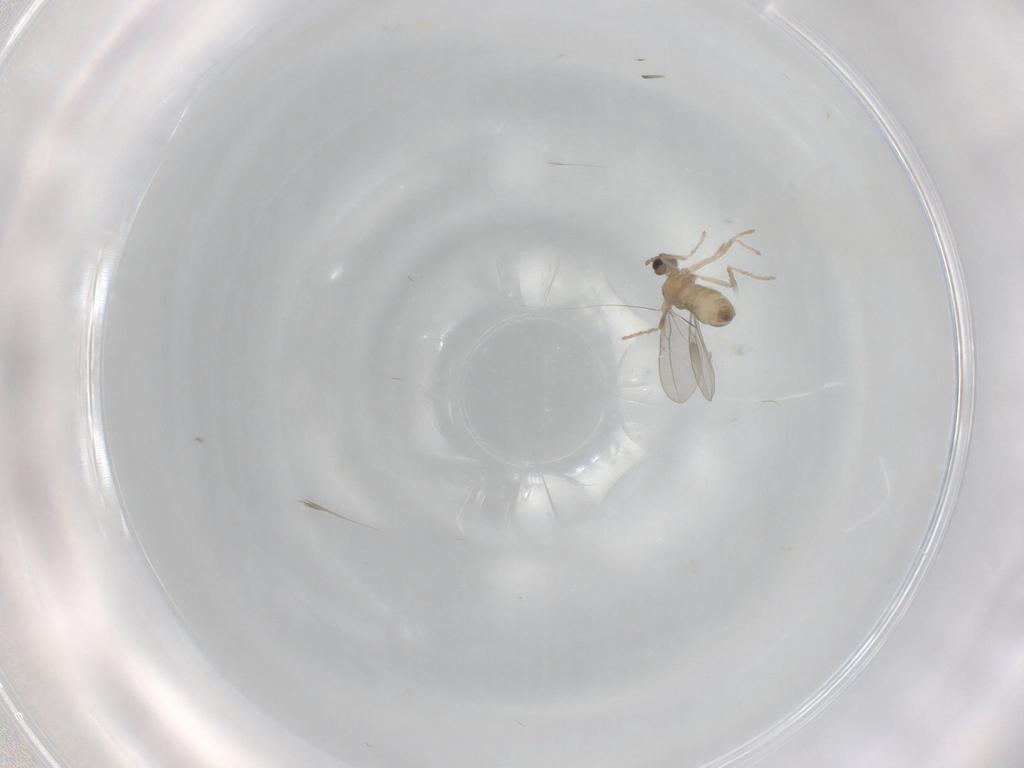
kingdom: Animalia
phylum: Arthropoda
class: Insecta
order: Diptera
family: Cecidomyiidae
